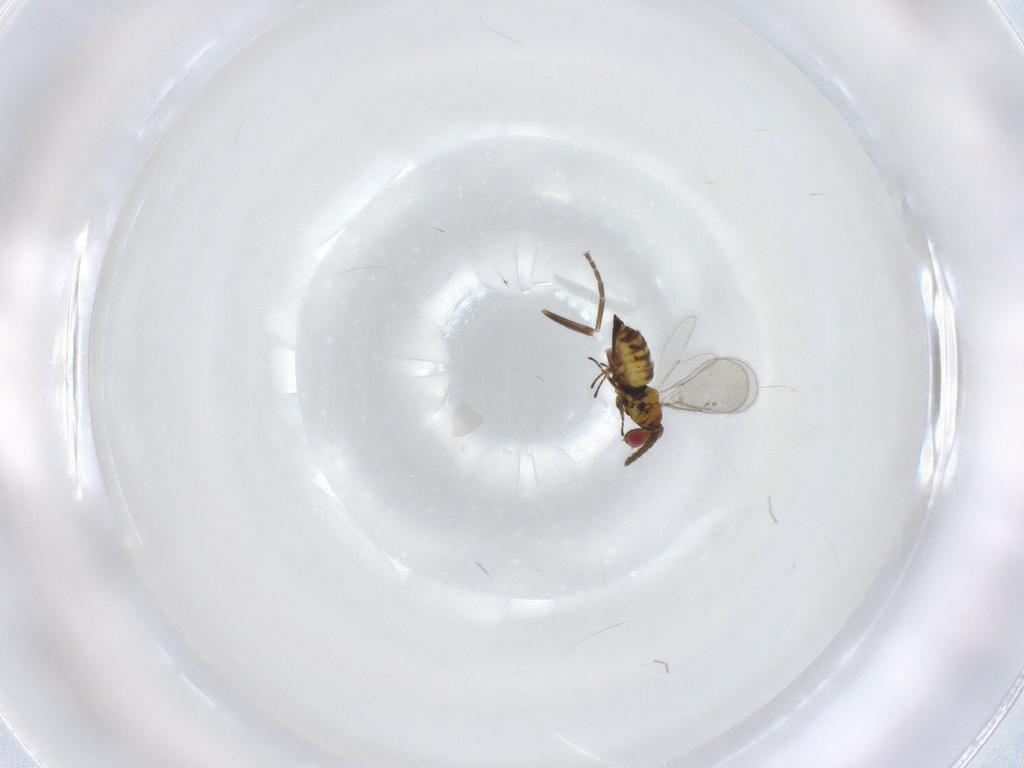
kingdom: Animalia
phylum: Arthropoda
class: Insecta
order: Hymenoptera
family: Eulophidae
